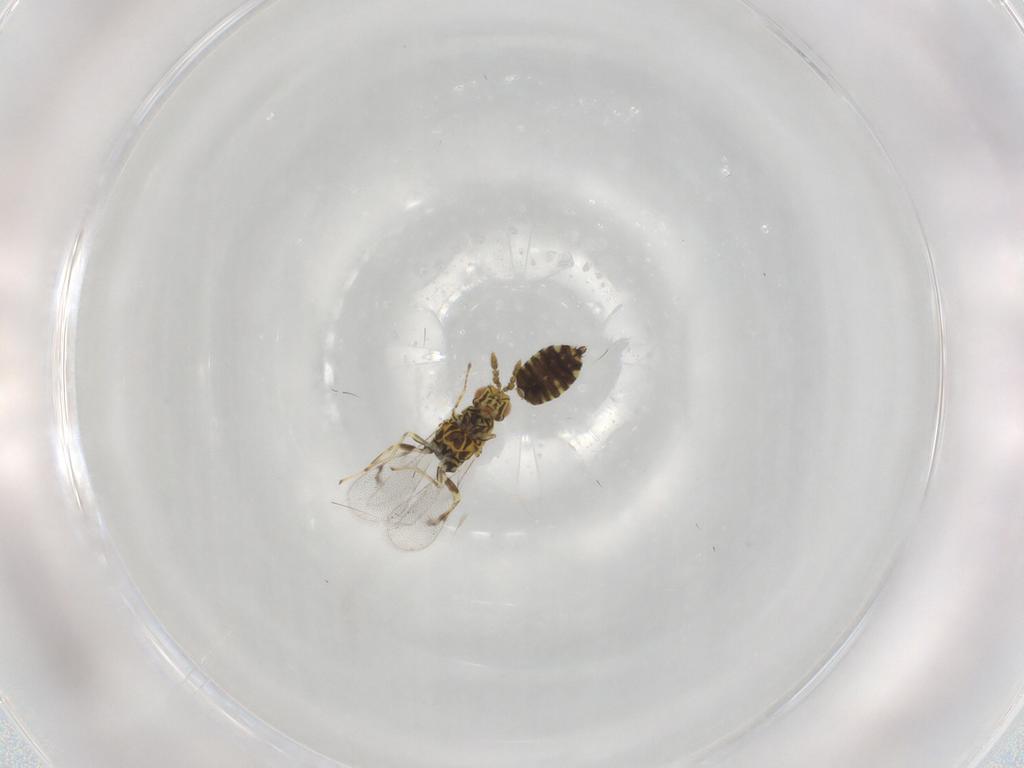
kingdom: Animalia
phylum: Arthropoda
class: Insecta
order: Hymenoptera
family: Eulophidae
